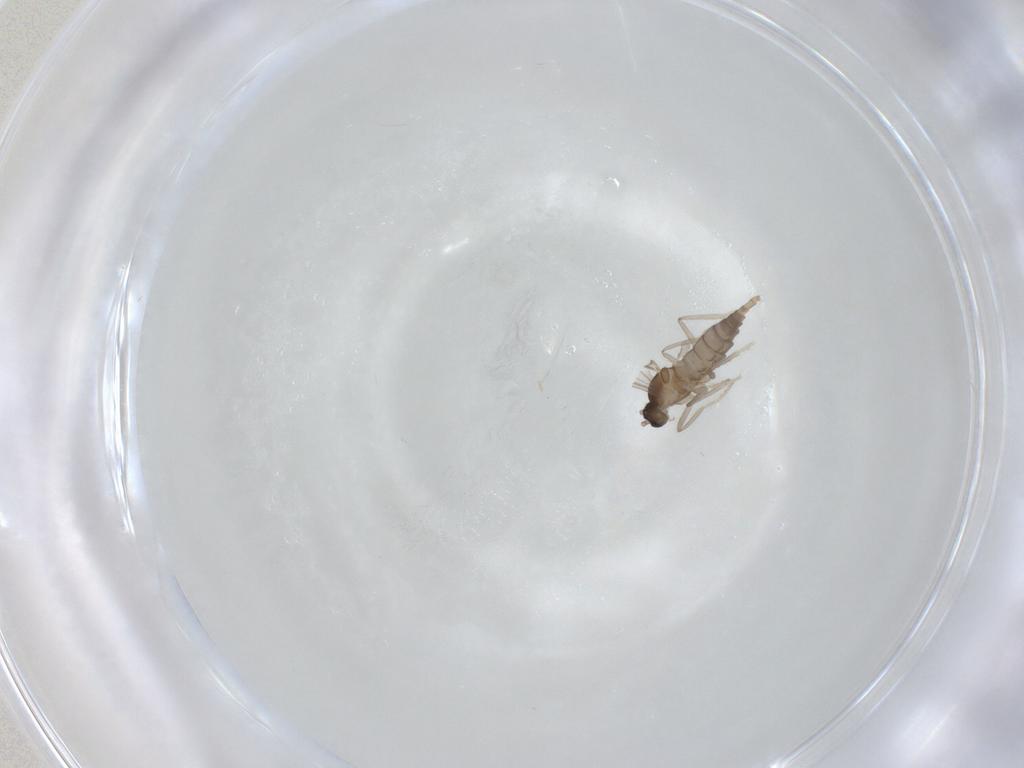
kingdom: Animalia
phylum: Arthropoda
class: Insecta
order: Diptera
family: Cecidomyiidae
